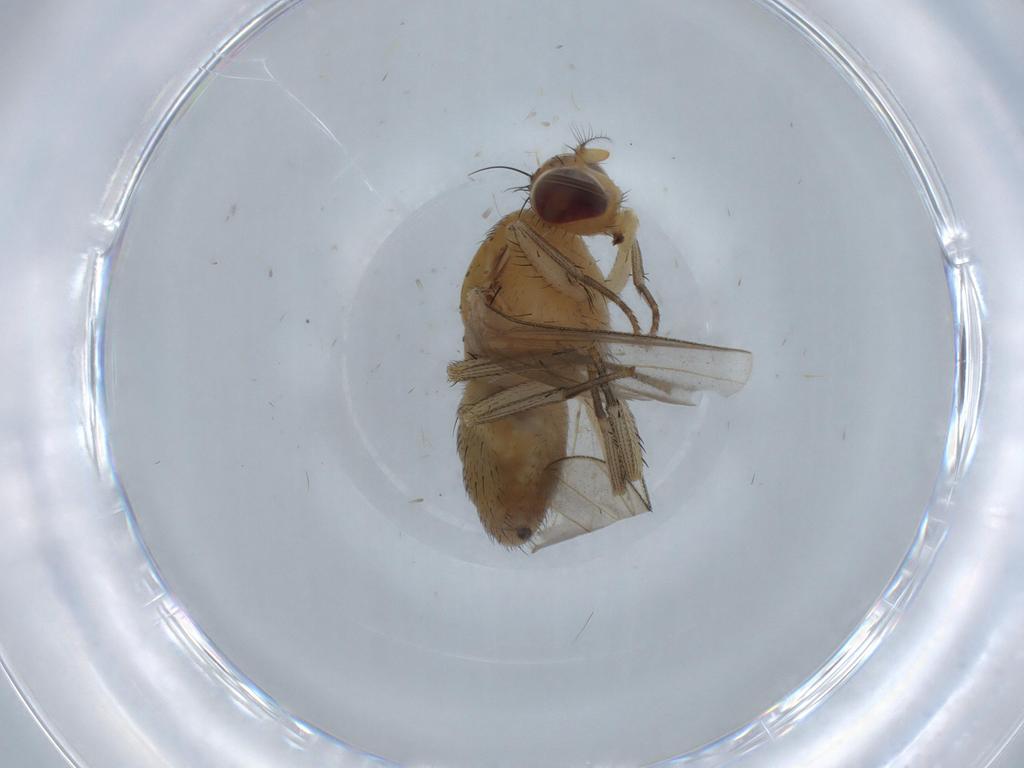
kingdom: Animalia
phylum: Arthropoda
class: Insecta
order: Diptera
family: Lauxaniidae
